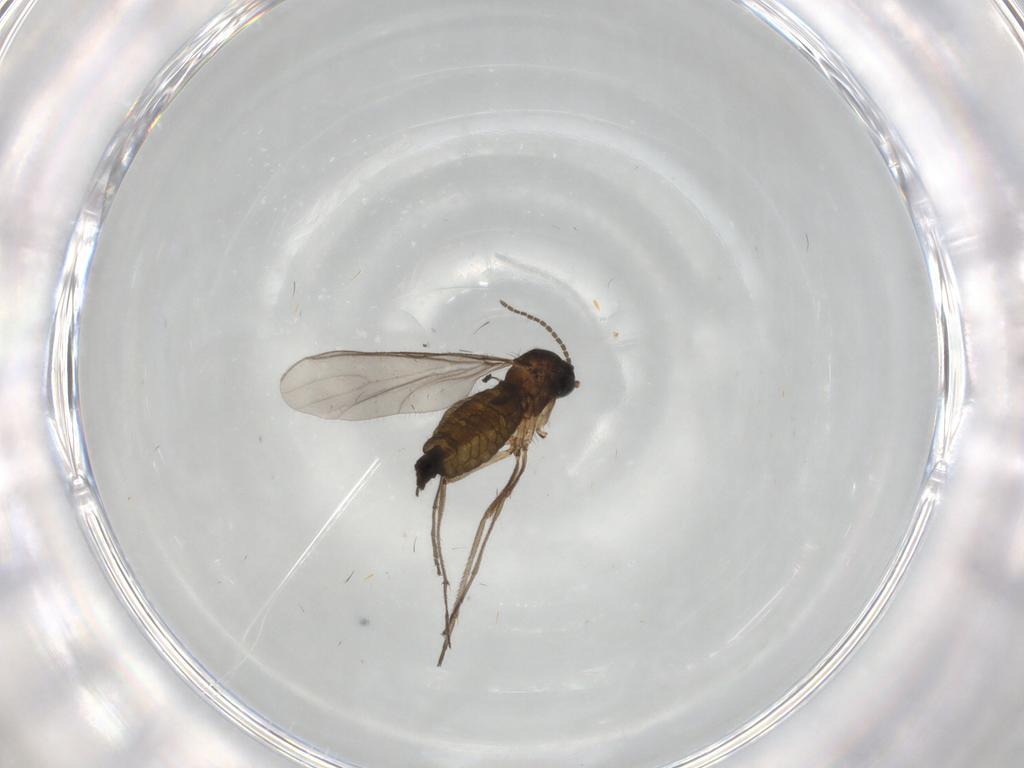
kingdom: Animalia
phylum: Arthropoda
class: Insecta
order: Diptera
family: Sciaridae
